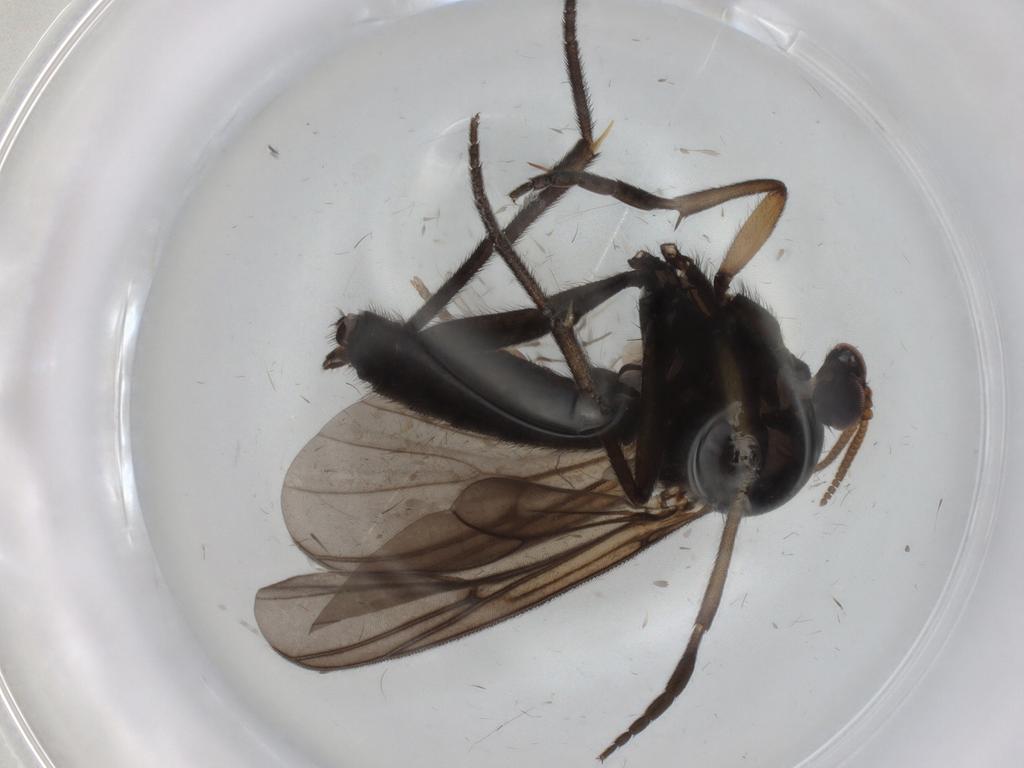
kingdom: Animalia
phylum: Arthropoda
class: Insecta
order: Diptera
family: Mycetophilidae
